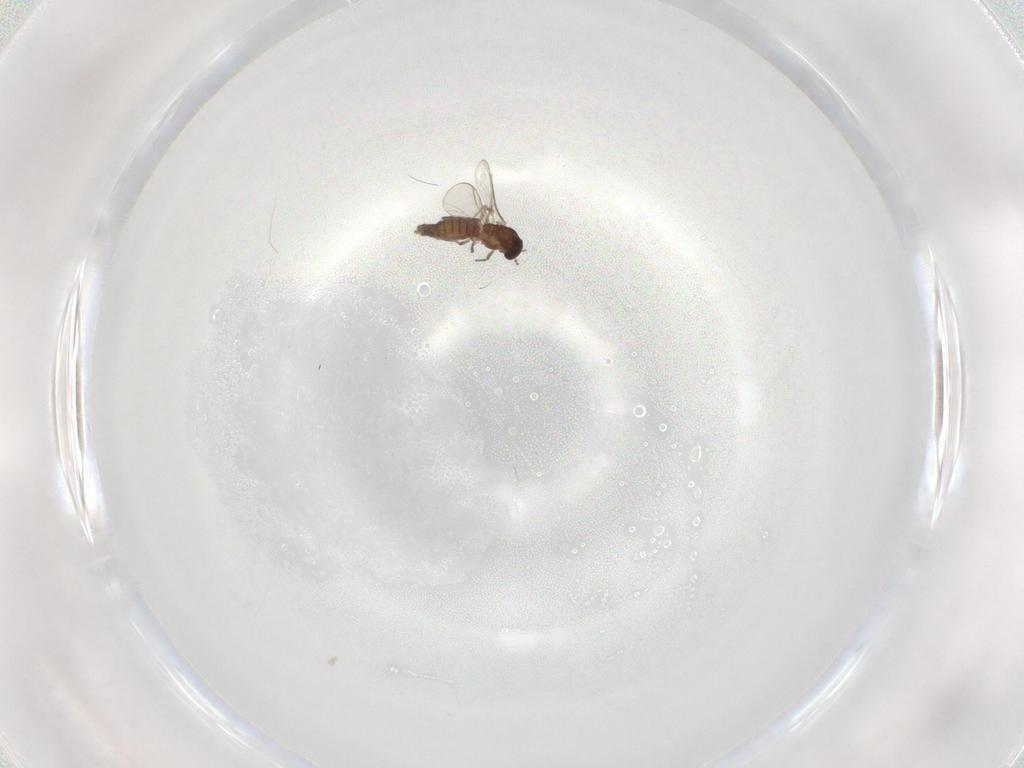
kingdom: Animalia
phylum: Arthropoda
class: Insecta
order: Diptera
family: Chironomidae
